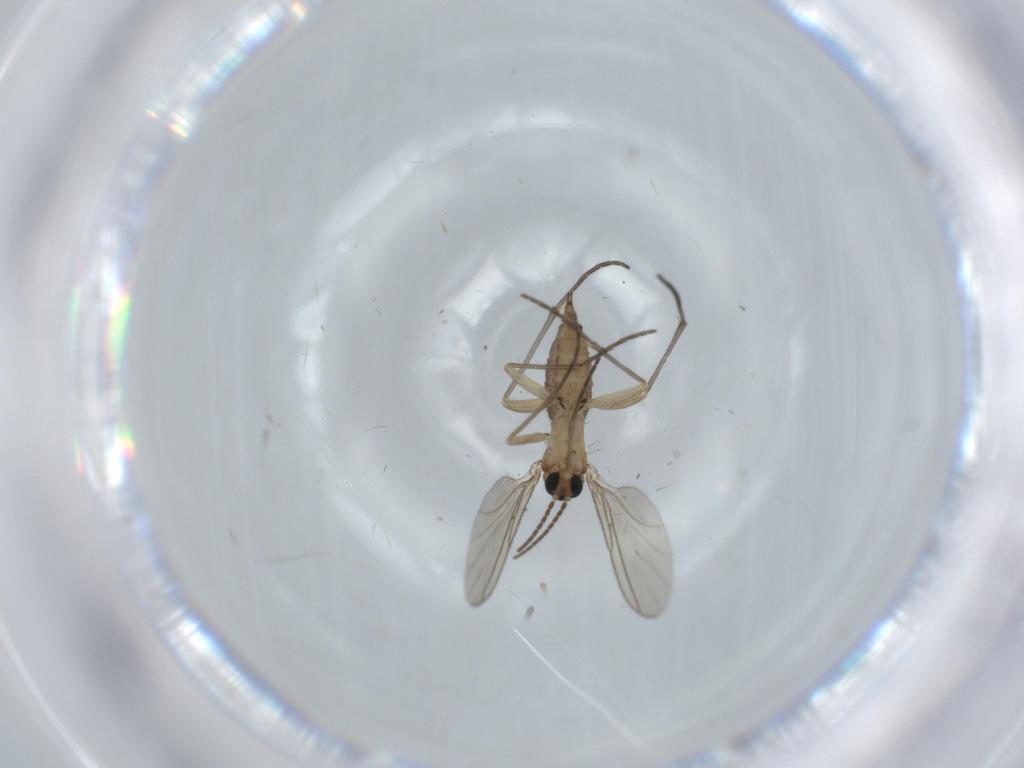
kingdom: Animalia
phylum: Arthropoda
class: Insecta
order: Diptera
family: Sciaridae
